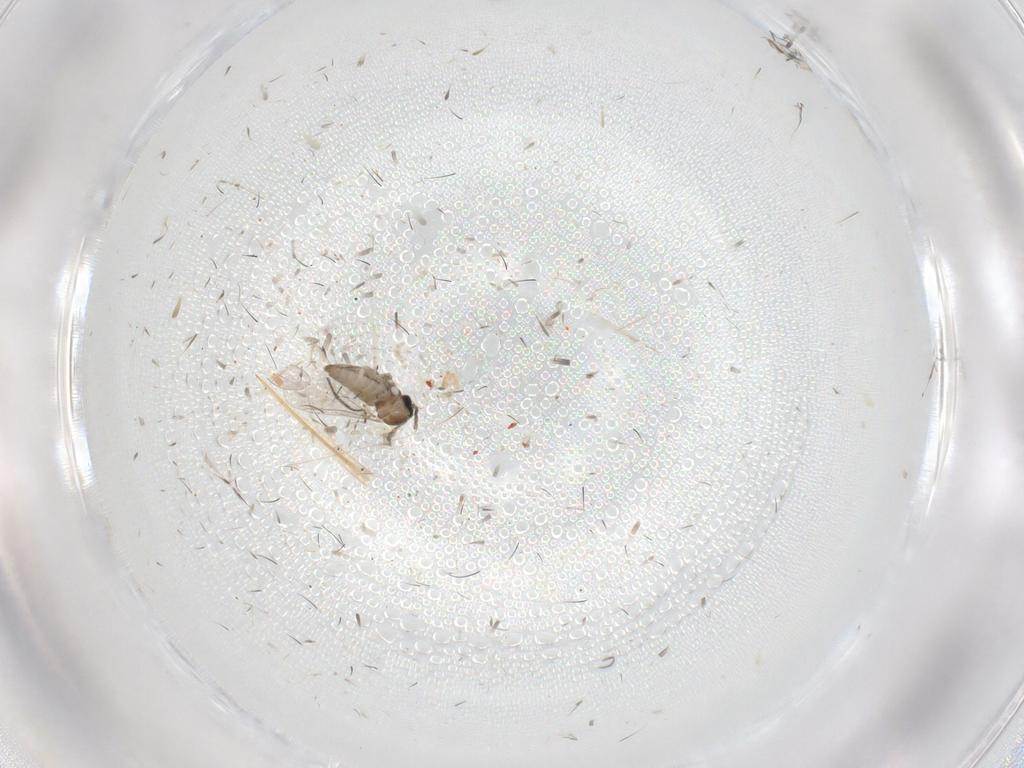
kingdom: Animalia
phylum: Arthropoda
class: Insecta
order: Diptera
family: Cecidomyiidae
